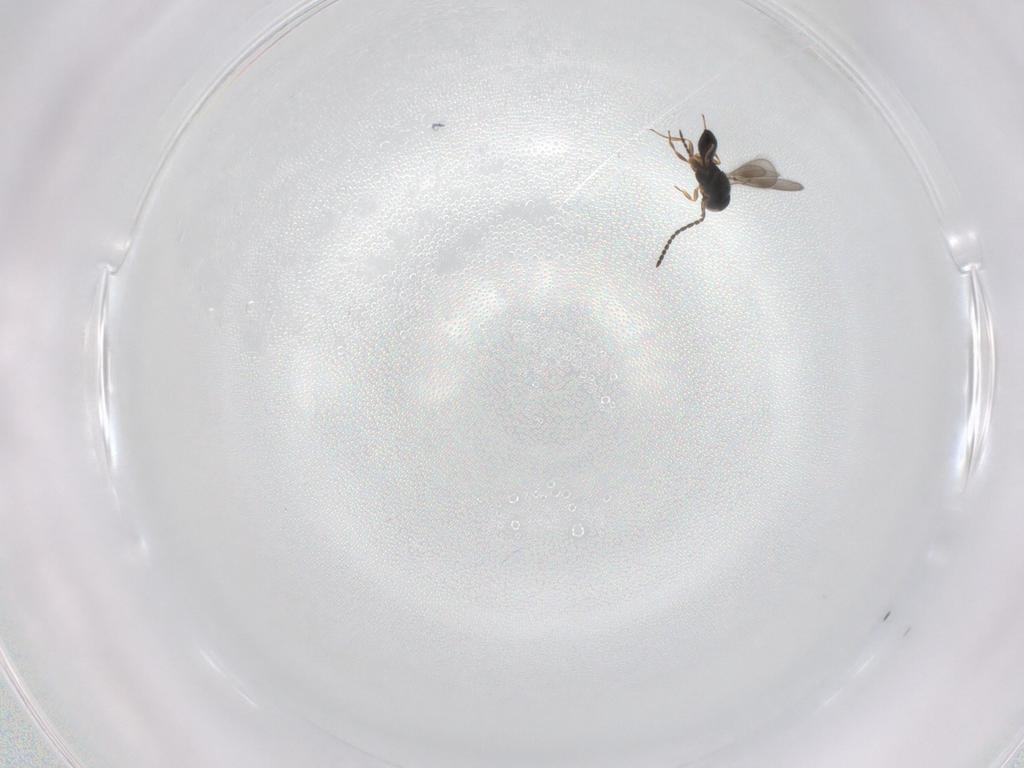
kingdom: Animalia
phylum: Arthropoda
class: Insecta
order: Hymenoptera
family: Scelionidae
